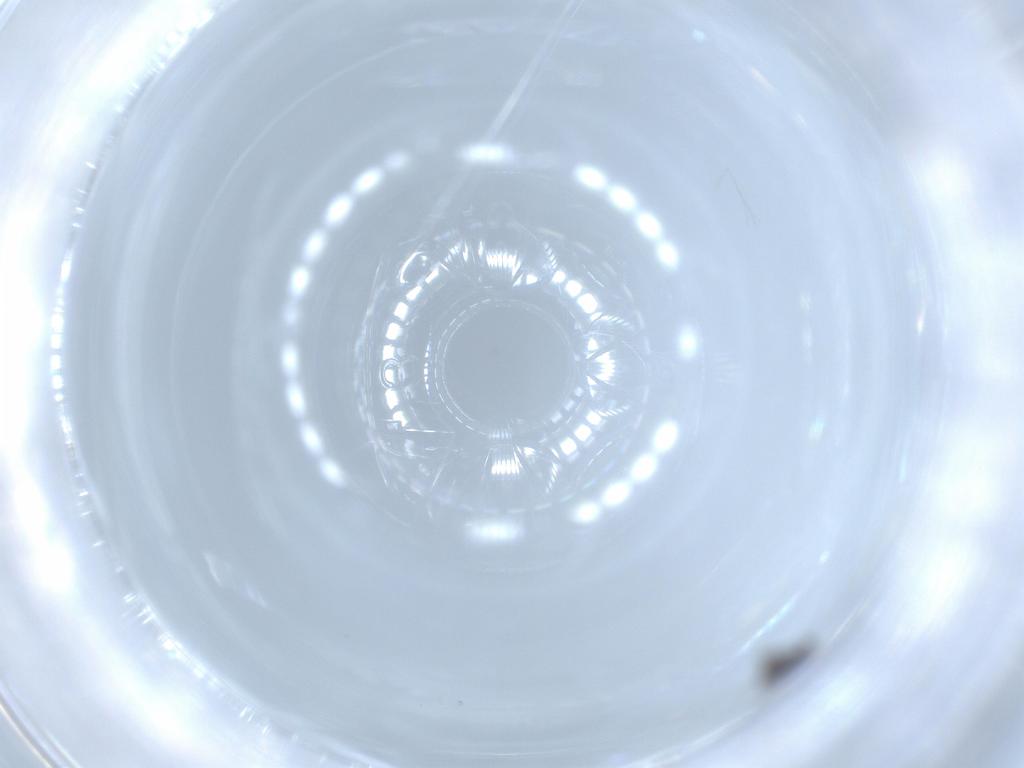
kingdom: Animalia
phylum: Arthropoda
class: Insecta
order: Diptera
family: Chironomidae
